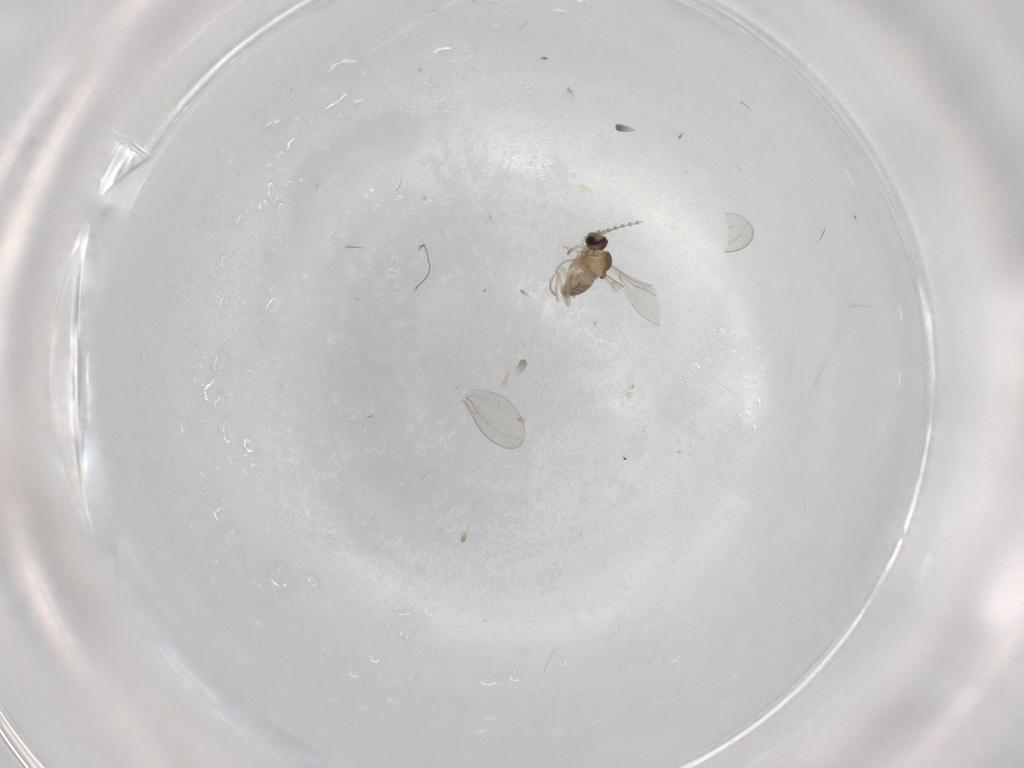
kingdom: Animalia
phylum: Arthropoda
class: Insecta
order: Diptera
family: Cecidomyiidae
